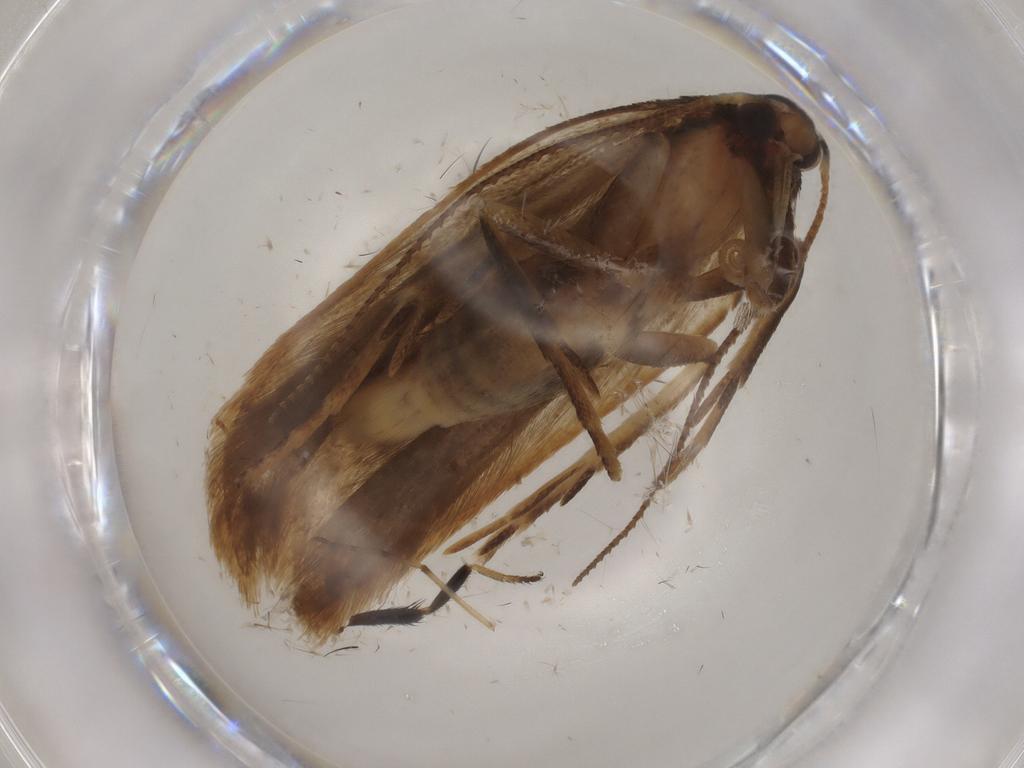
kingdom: Animalia
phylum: Arthropoda
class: Insecta
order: Lepidoptera
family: Gelechiidae
